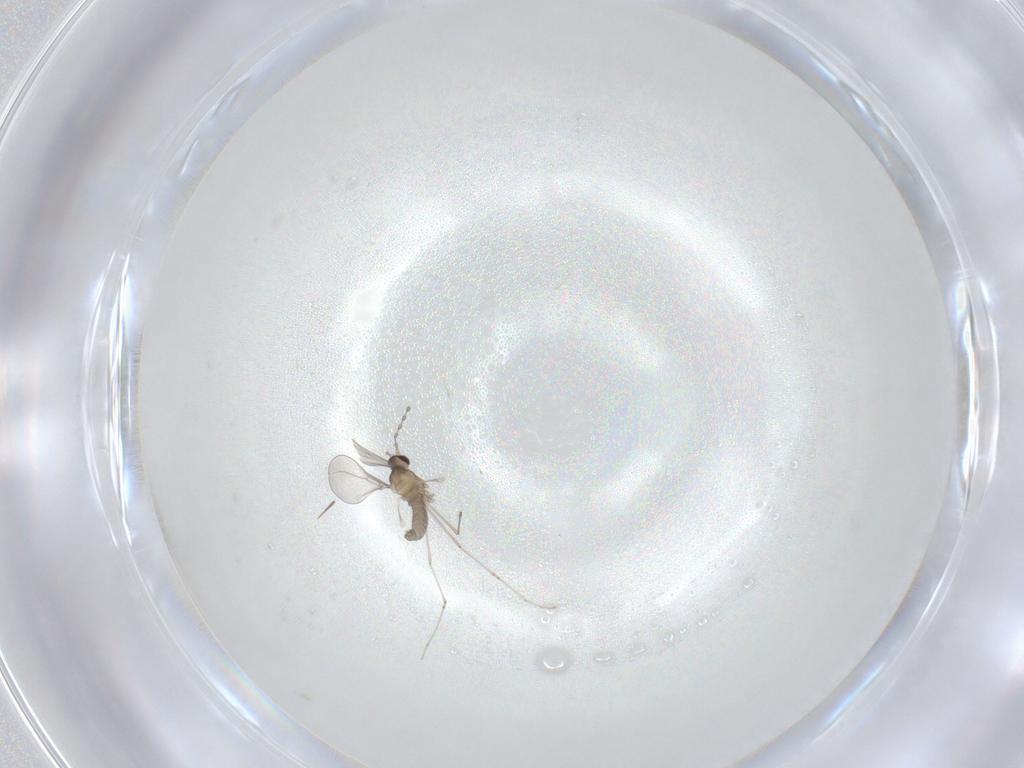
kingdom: Animalia
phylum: Arthropoda
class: Insecta
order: Diptera
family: Cecidomyiidae
